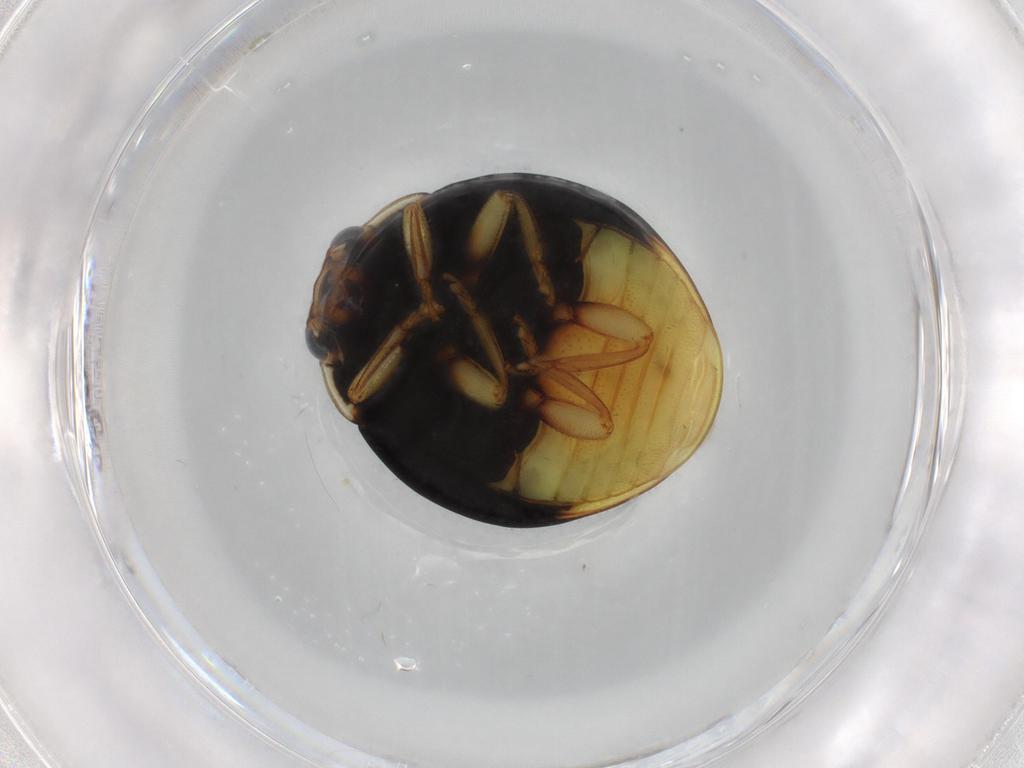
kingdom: Animalia
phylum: Arthropoda
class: Insecta
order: Coleoptera
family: Coccinellidae
